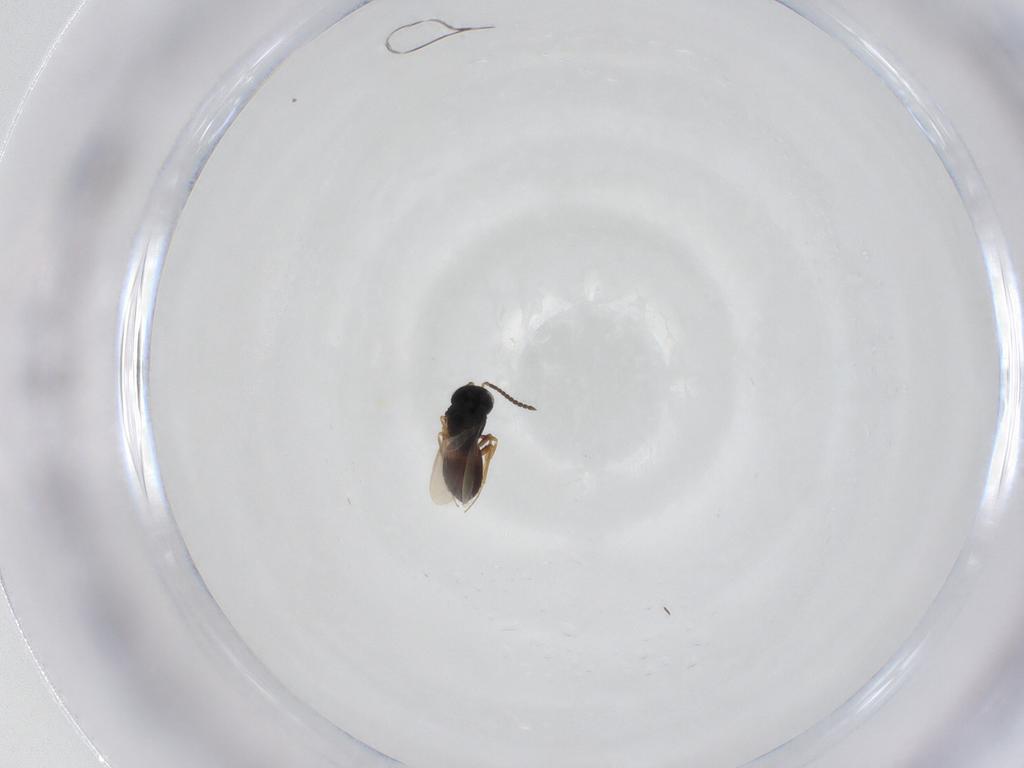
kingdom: Animalia
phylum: Arthropoda
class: Insecta
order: Hymenoptera
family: Scelionidae
